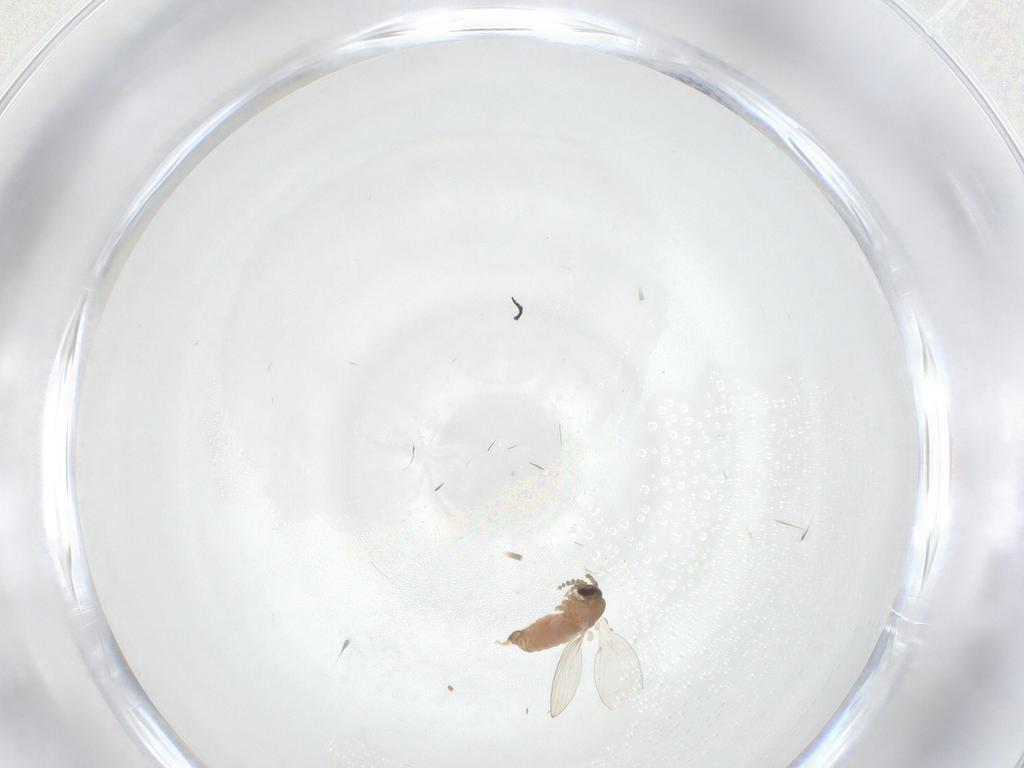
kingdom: Animalia
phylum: Arthropoda
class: Insecta
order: Diptera
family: Psychodidae
